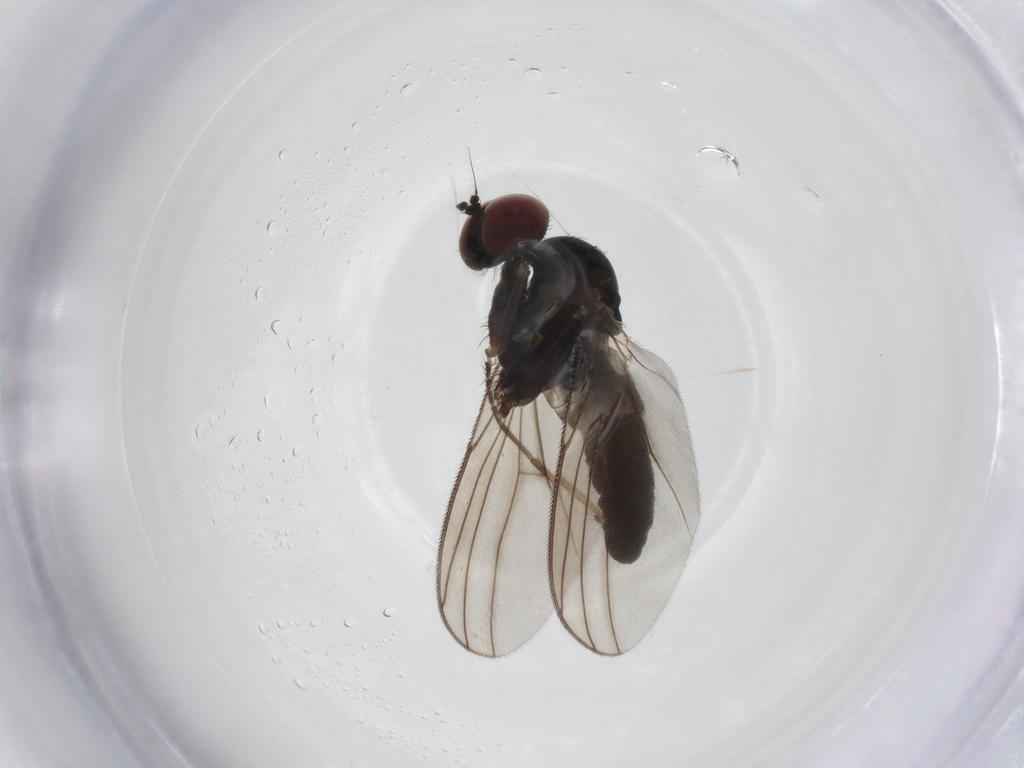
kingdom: Animalia
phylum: Arthropoda
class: Insecta
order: Diptera
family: Dolichopodidae
